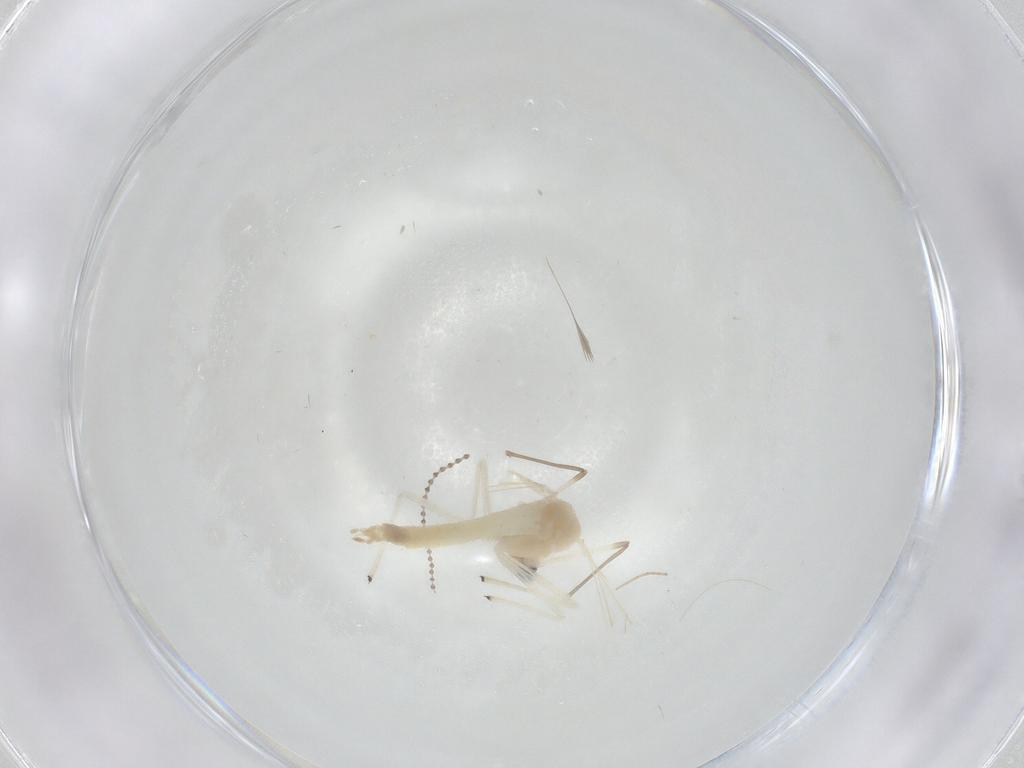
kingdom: Animalia
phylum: Arthropoda
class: Insecta
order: Diptera
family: Chironomidae
